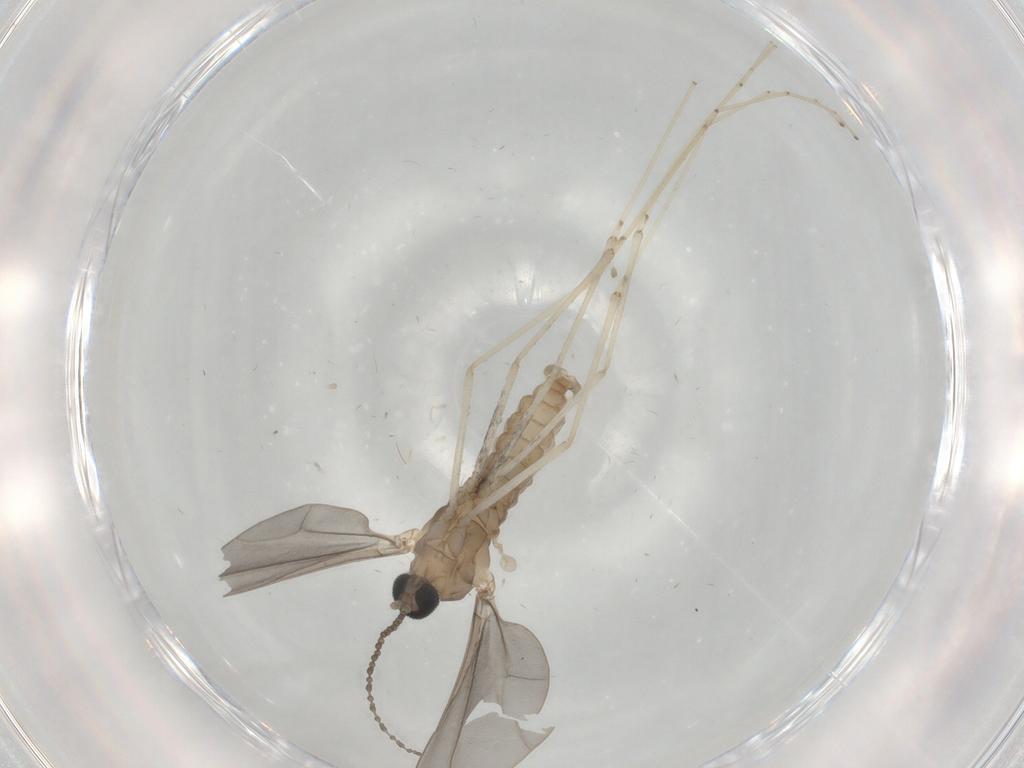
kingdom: Animalia
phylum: Arthropoda
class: Insecta
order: Diptera
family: Cecidomyiidae
